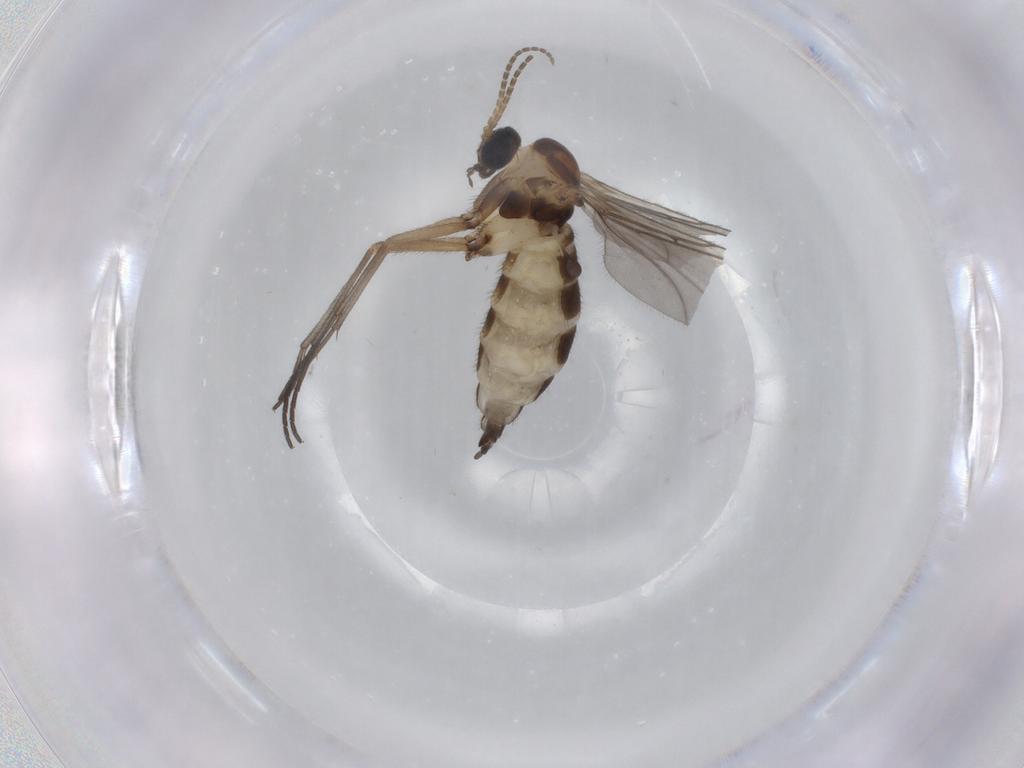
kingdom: Animalia
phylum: Arthropoda
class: Insecta
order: Diptera
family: Sciaridae
